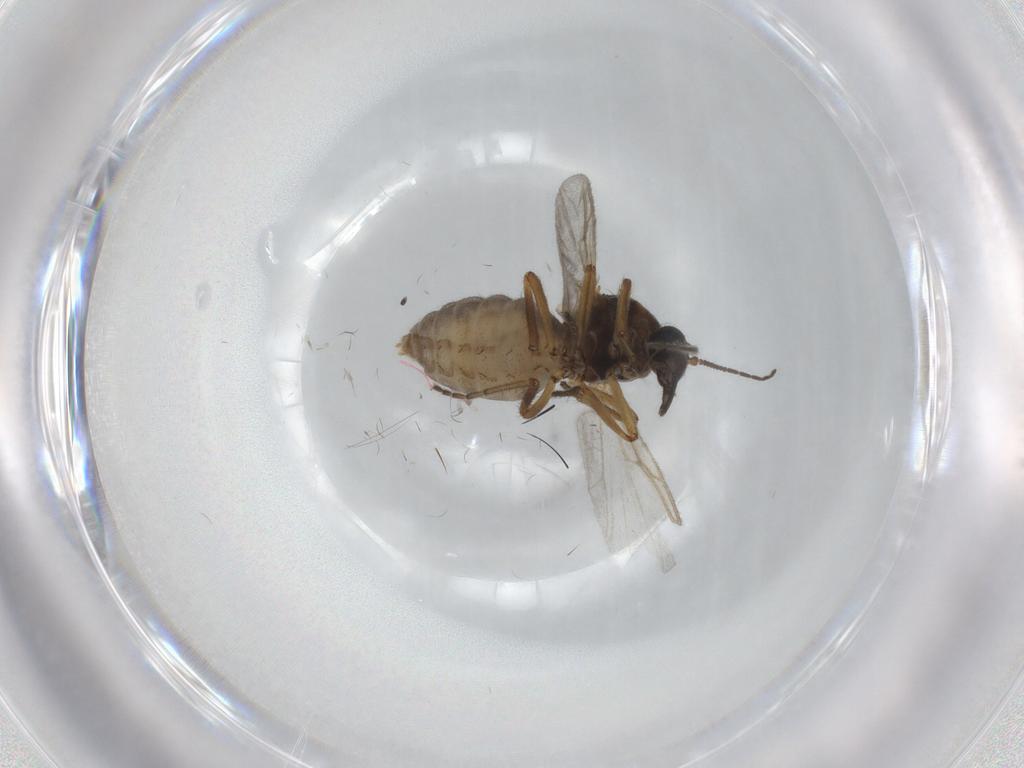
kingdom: Animalia
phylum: Arthropoda
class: Insecta
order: Diptera
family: Ceratopogonidae
